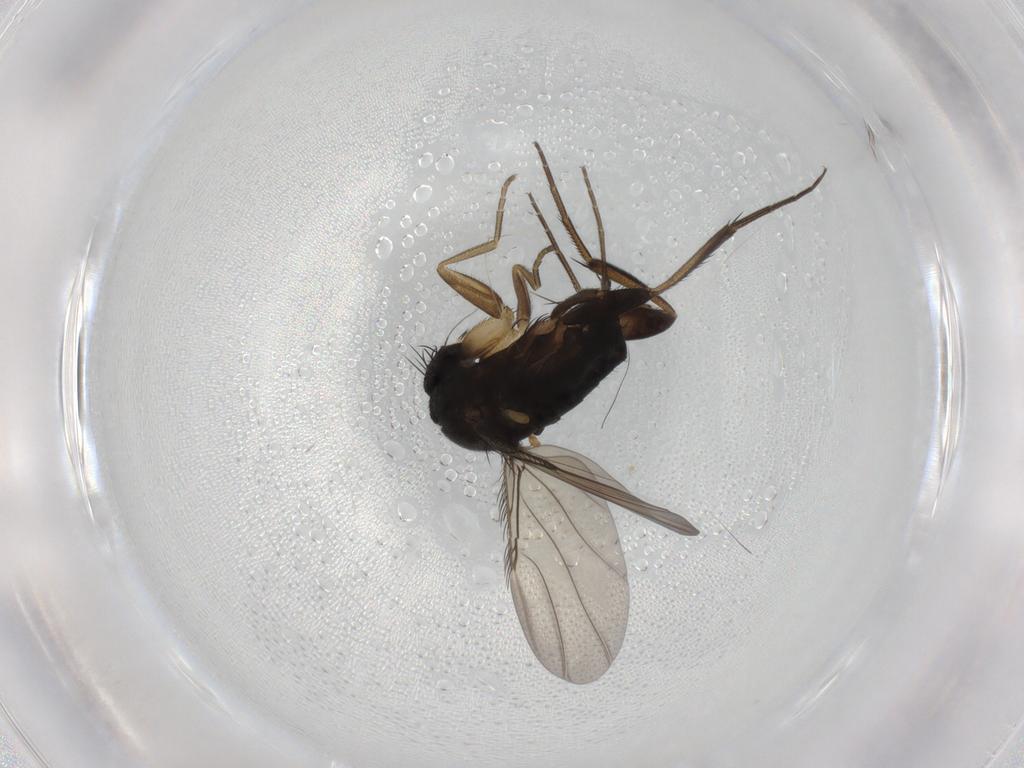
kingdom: Animalia
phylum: Arthropoda
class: Insecta
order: Diptera
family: Phoridae
